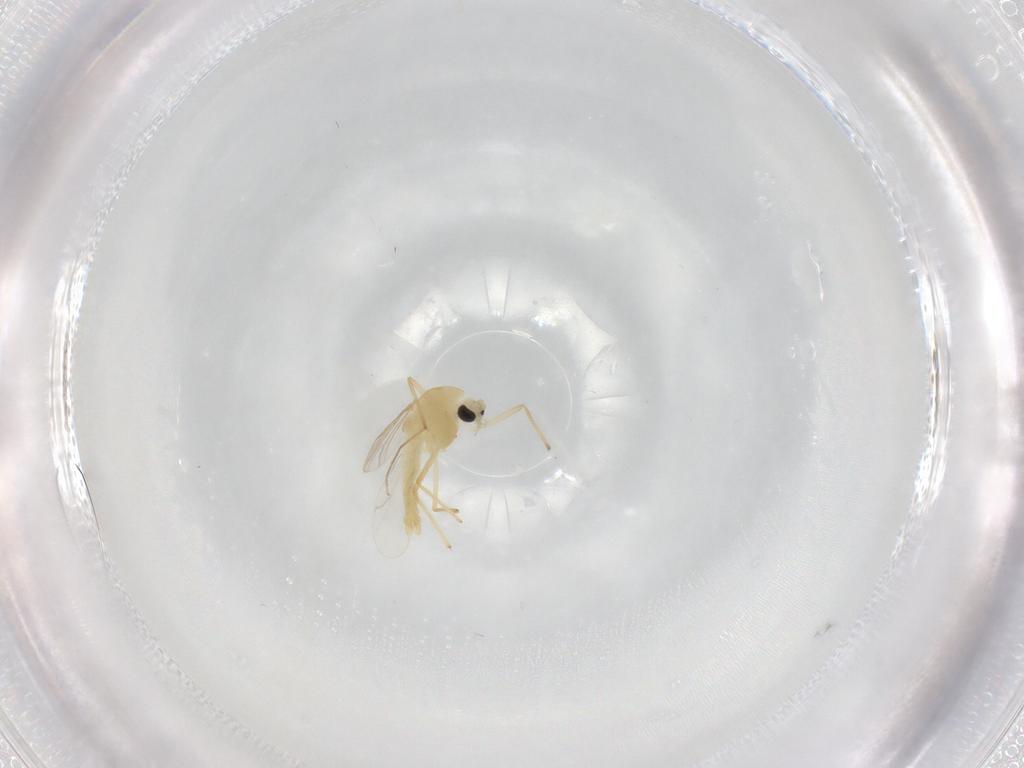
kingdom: Animalia
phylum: Arthropoda
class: Insecta
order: Diptera
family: Chironomidae
